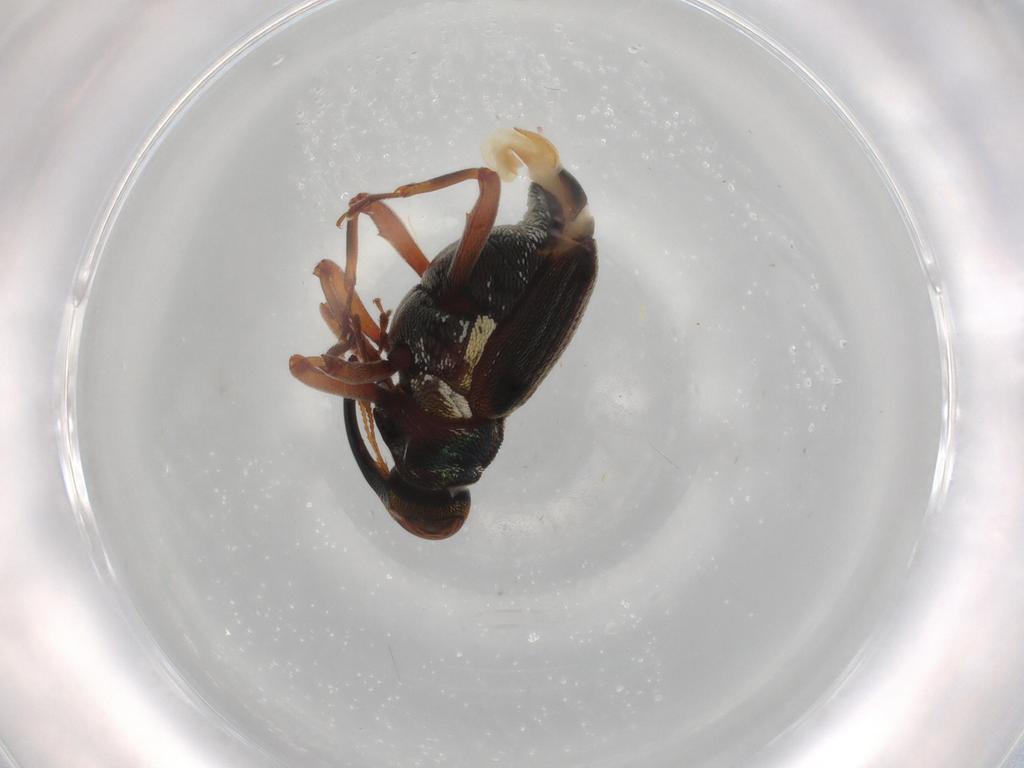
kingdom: Animalia
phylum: Arthropoda
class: Insecta
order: Coleoptera
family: Curculionidae
